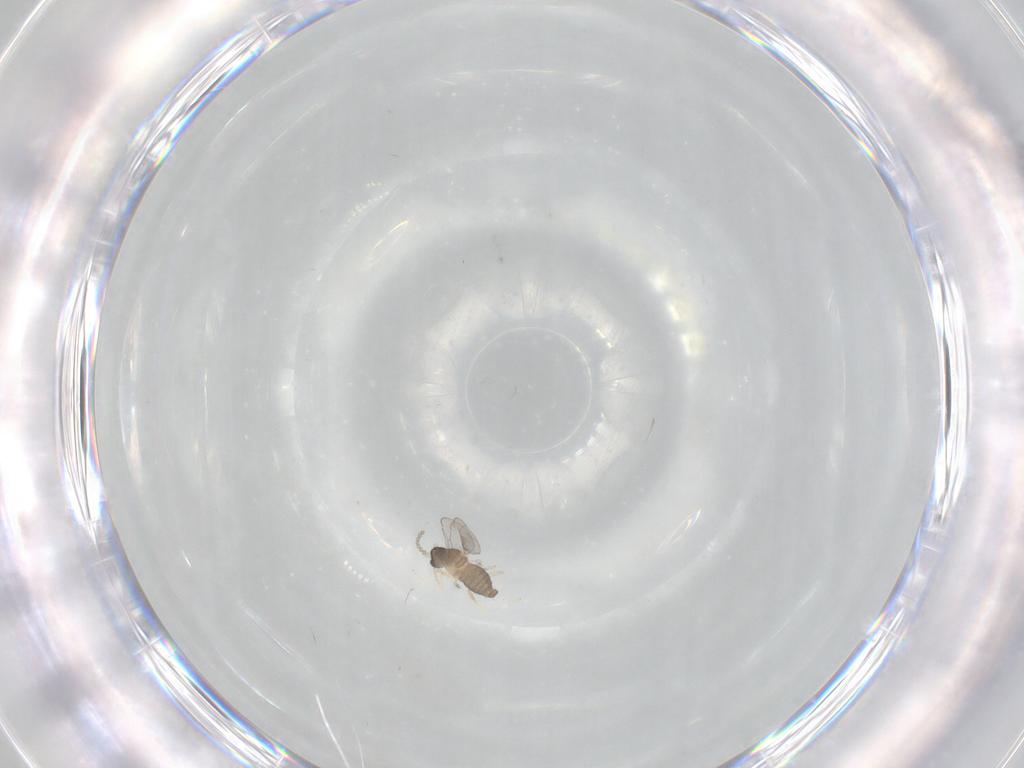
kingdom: Animalia
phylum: Arthropoda
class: Insecta
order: Diptera
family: Cecidomyiidae
